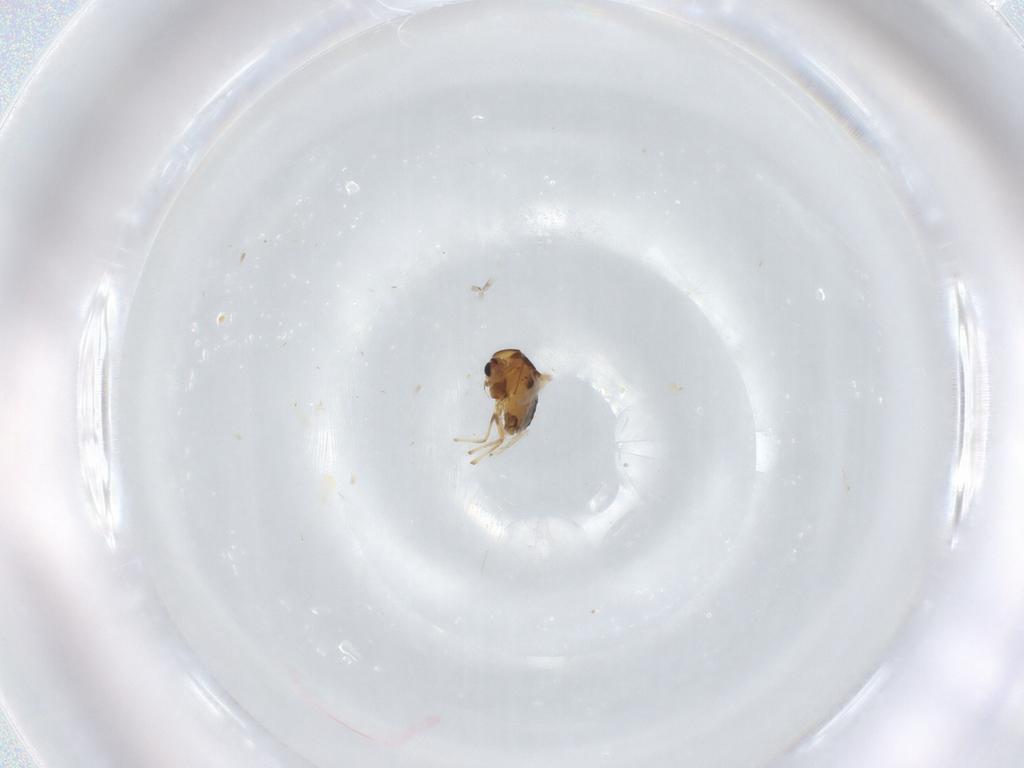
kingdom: Animalia
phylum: Arthropoda
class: Insecta
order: Diptera
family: Chironomidae
